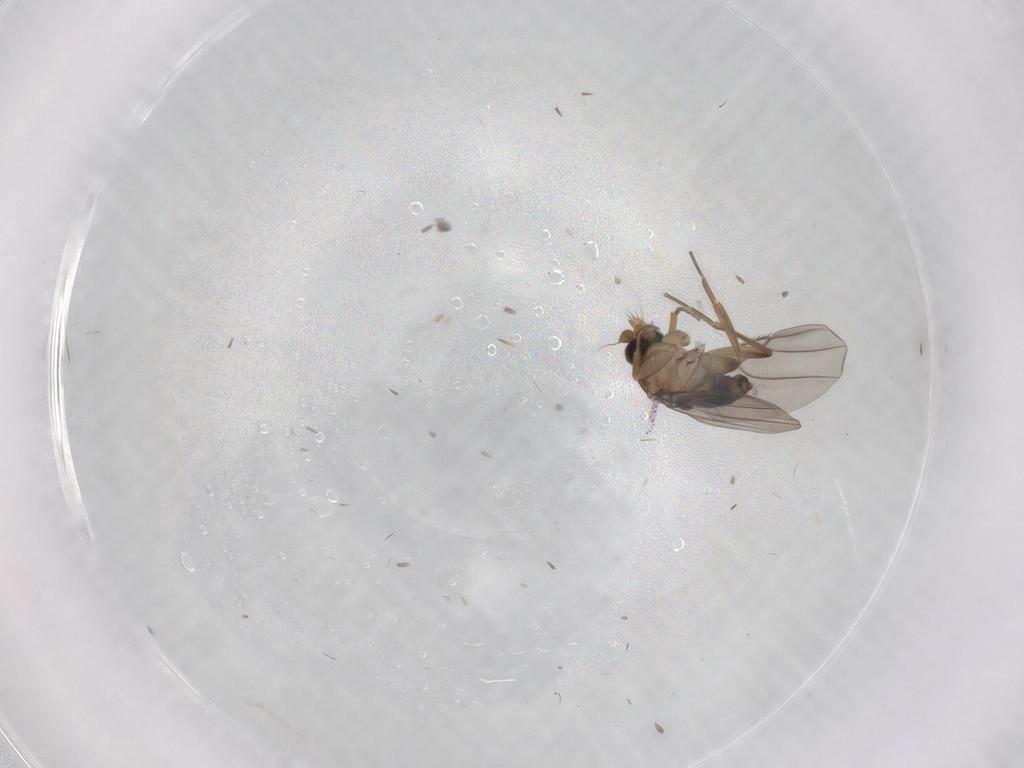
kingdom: Animalia
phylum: Arthropoda
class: Insecta
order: Diptera
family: Phoridae
